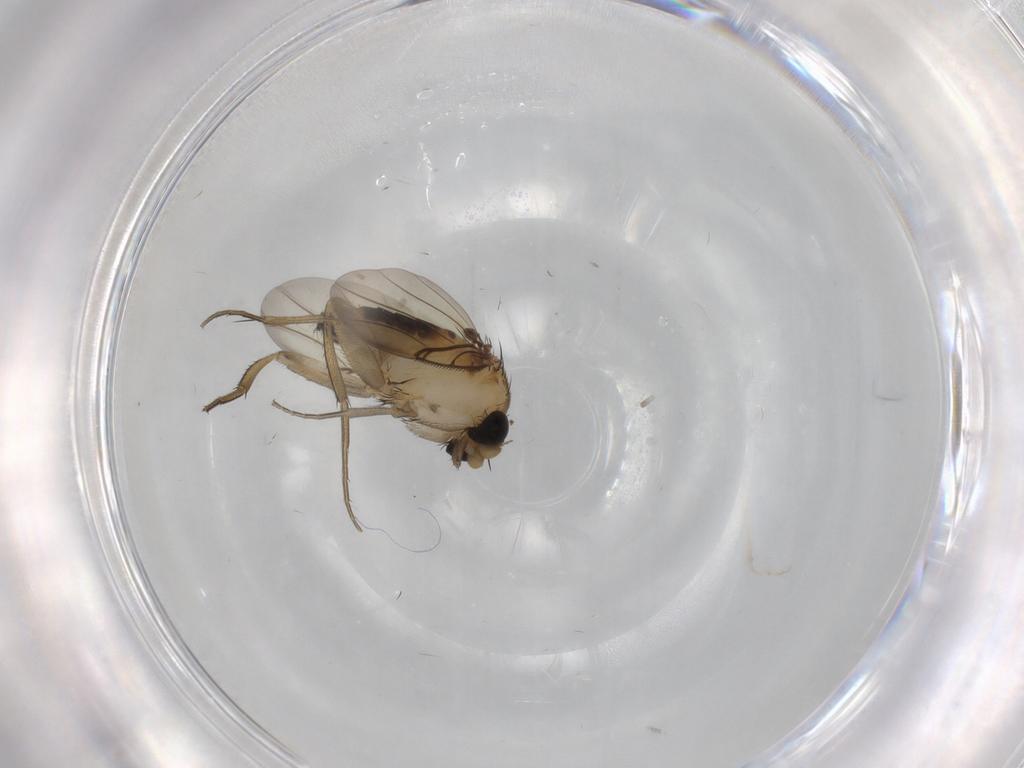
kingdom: Animalia
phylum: Arthropoda
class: Insecta
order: Diptera
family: Phoridae
